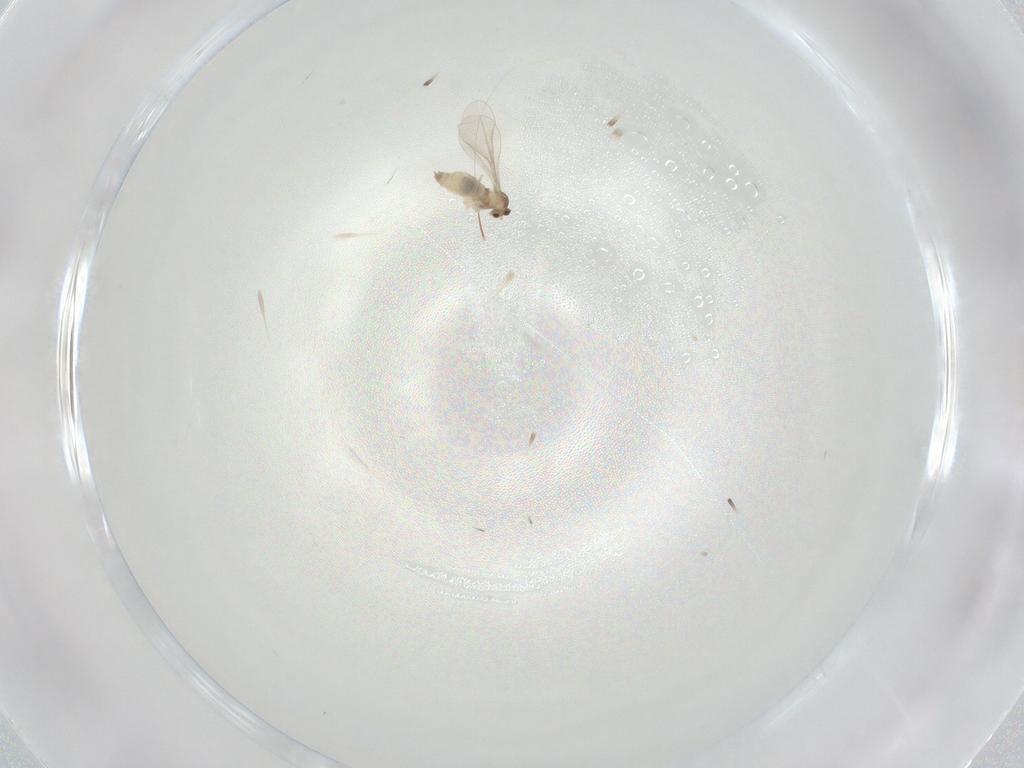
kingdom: Animalia
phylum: Arthropoda
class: Insecta
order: Diptera
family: Cecidomyiidae
